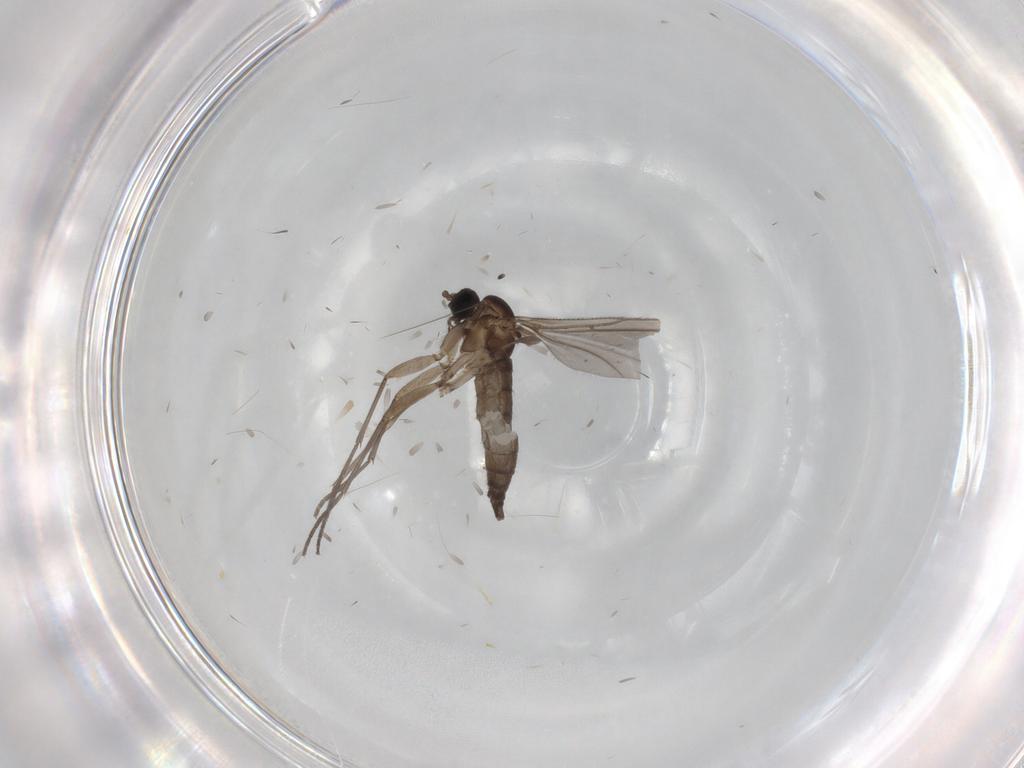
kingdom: Animalia
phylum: Arthropoda
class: Insecta
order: Diptera
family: Sciaridae
